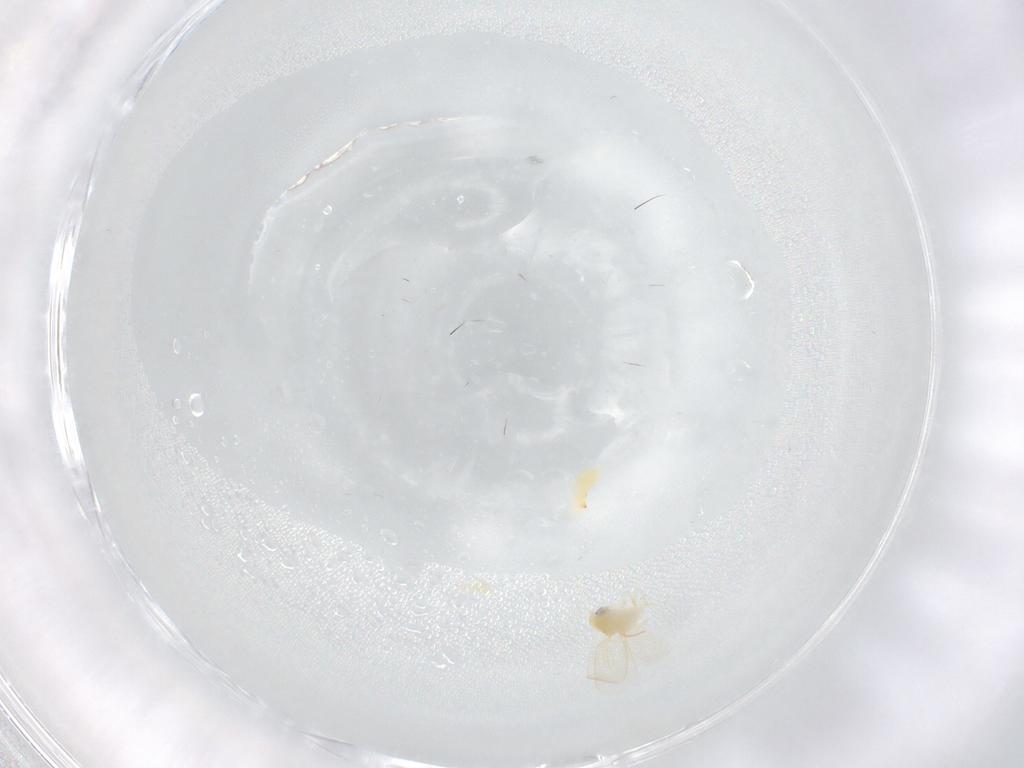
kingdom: Animalia
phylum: Arthropoda
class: Insecta
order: Hemiptera
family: Aleyrodidae
